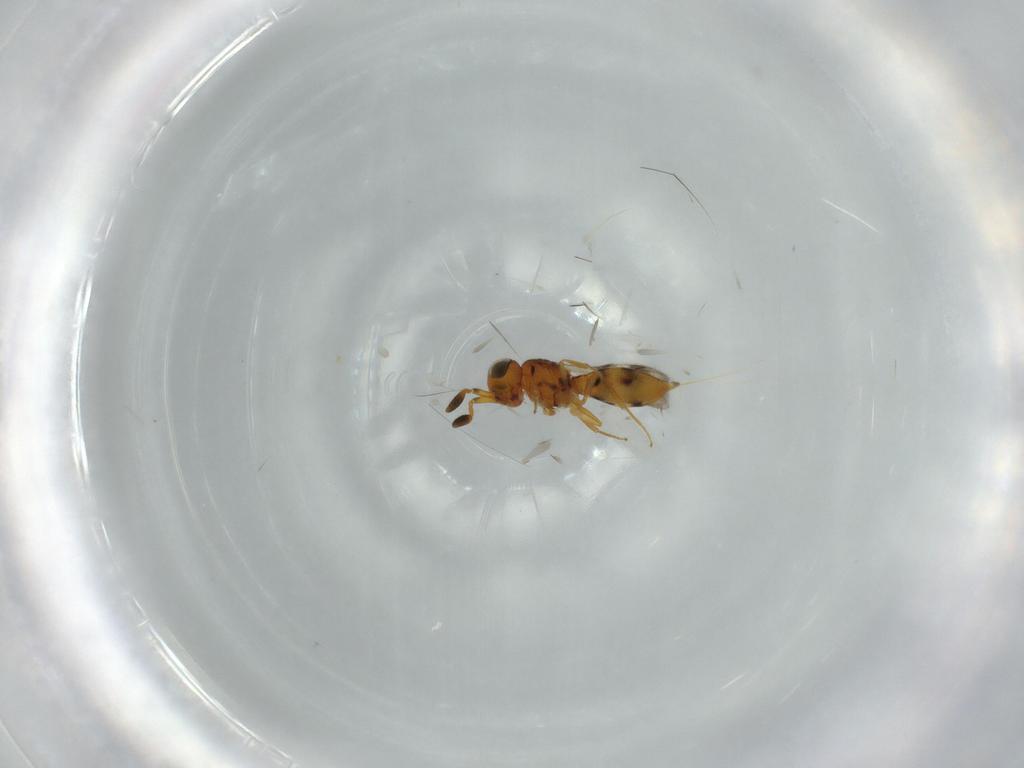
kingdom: Animalia
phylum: Arthropoda
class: Insecta
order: Hymenoptera
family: Scelionidae
